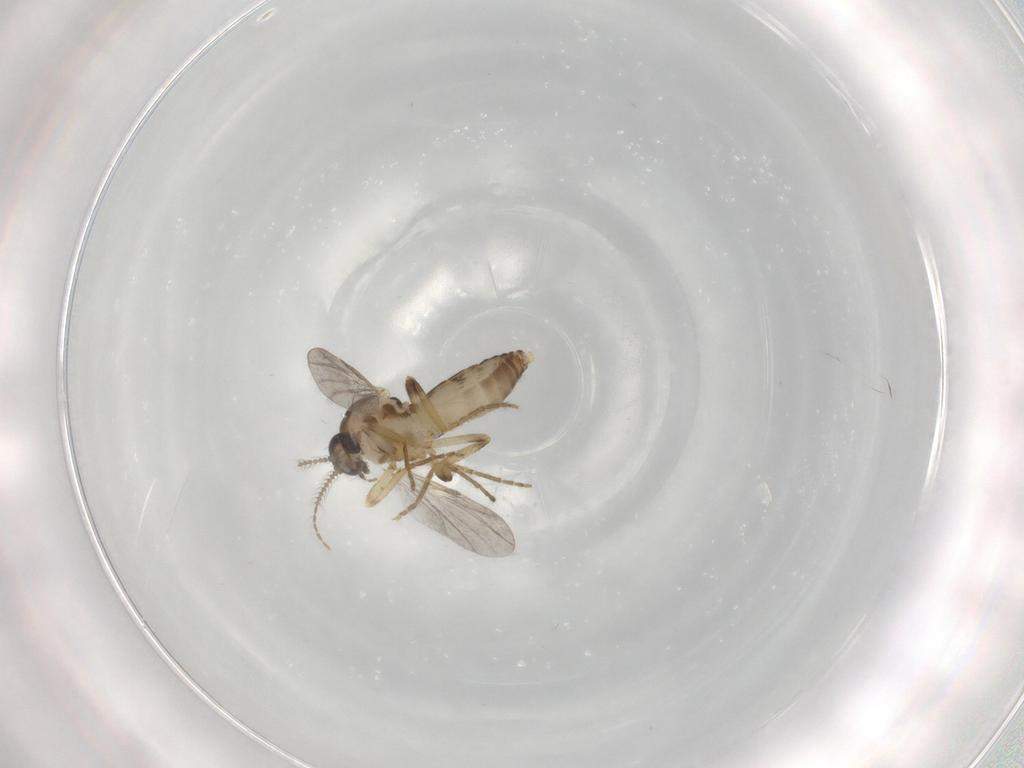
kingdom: Animalia
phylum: Arthropoda
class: Insecta
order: Diptera
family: Ceratopogonidae
